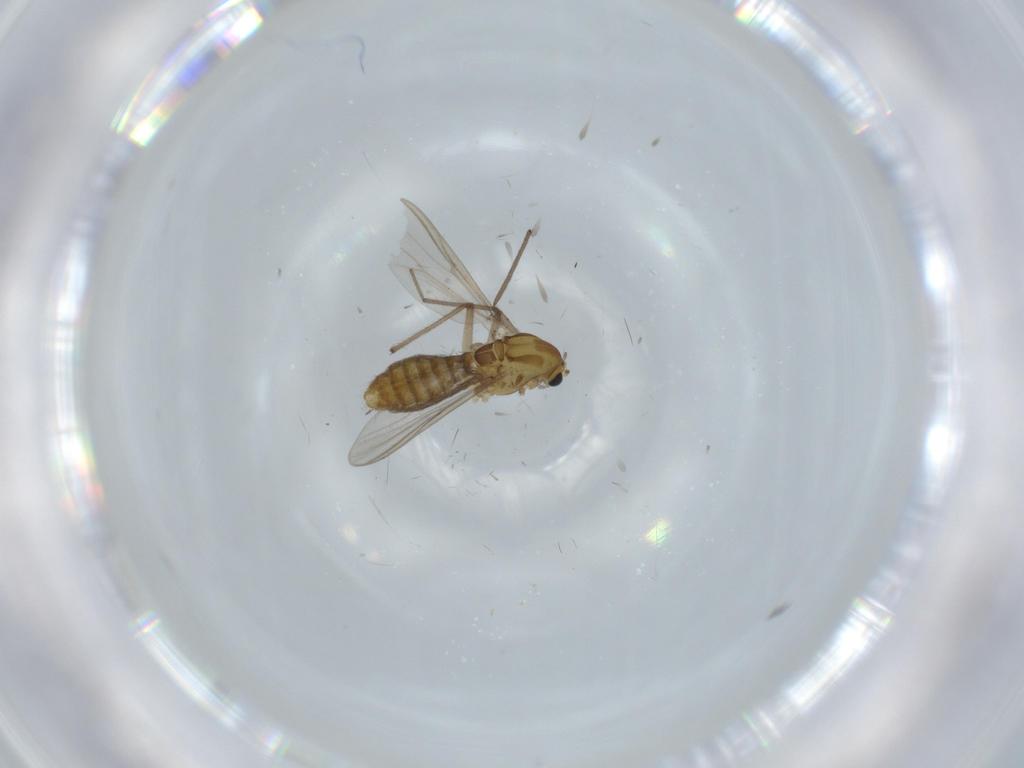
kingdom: Animalia
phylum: Arthropoda
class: Insecta
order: Diptera
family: Chironomidae
